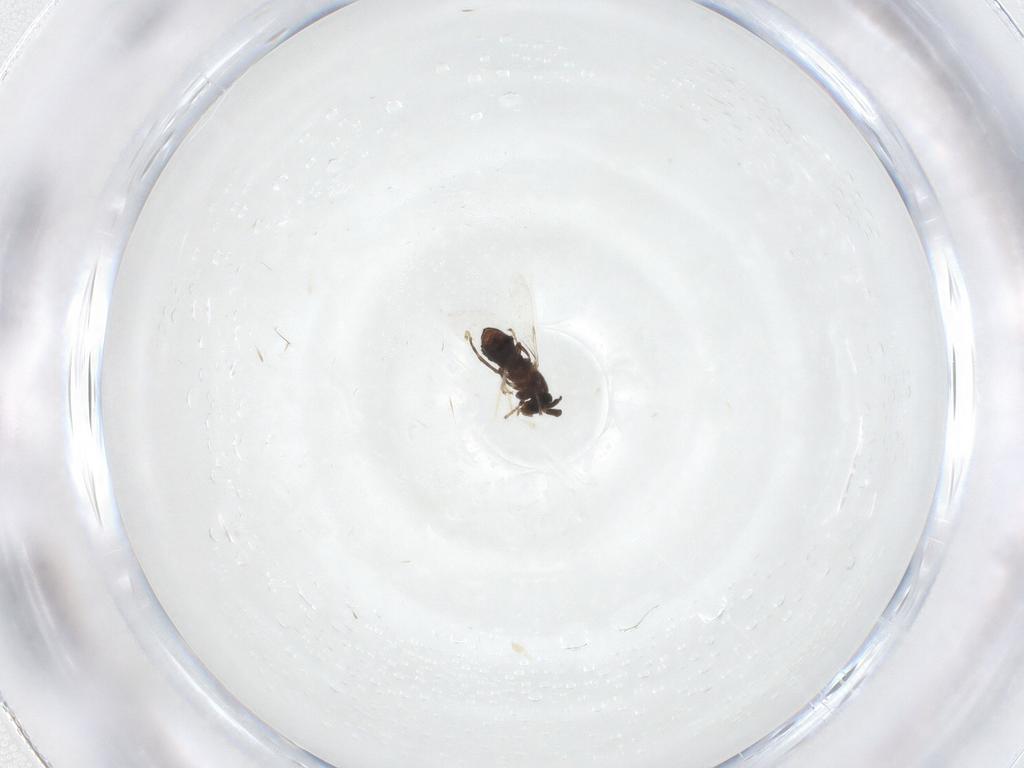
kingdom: Animalia
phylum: Arthropoda
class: Insecta
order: Diptera
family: Scatopsidae
